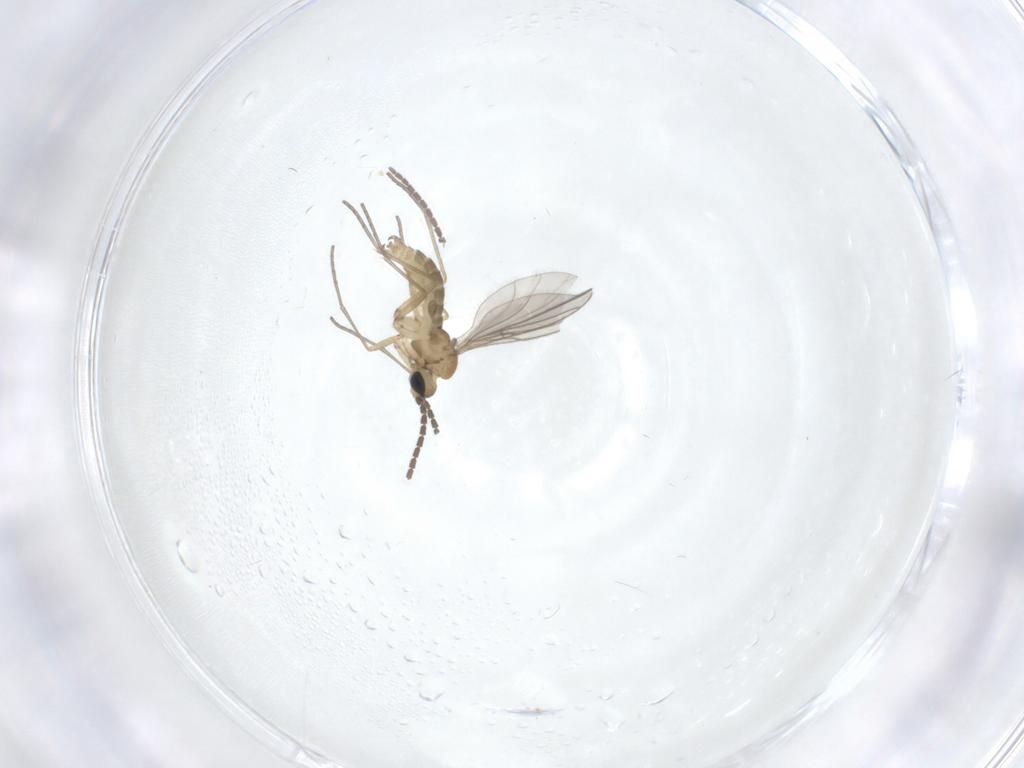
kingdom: Animalia
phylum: Arthropoda
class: Insecta
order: Diptera
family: Sciaridae
